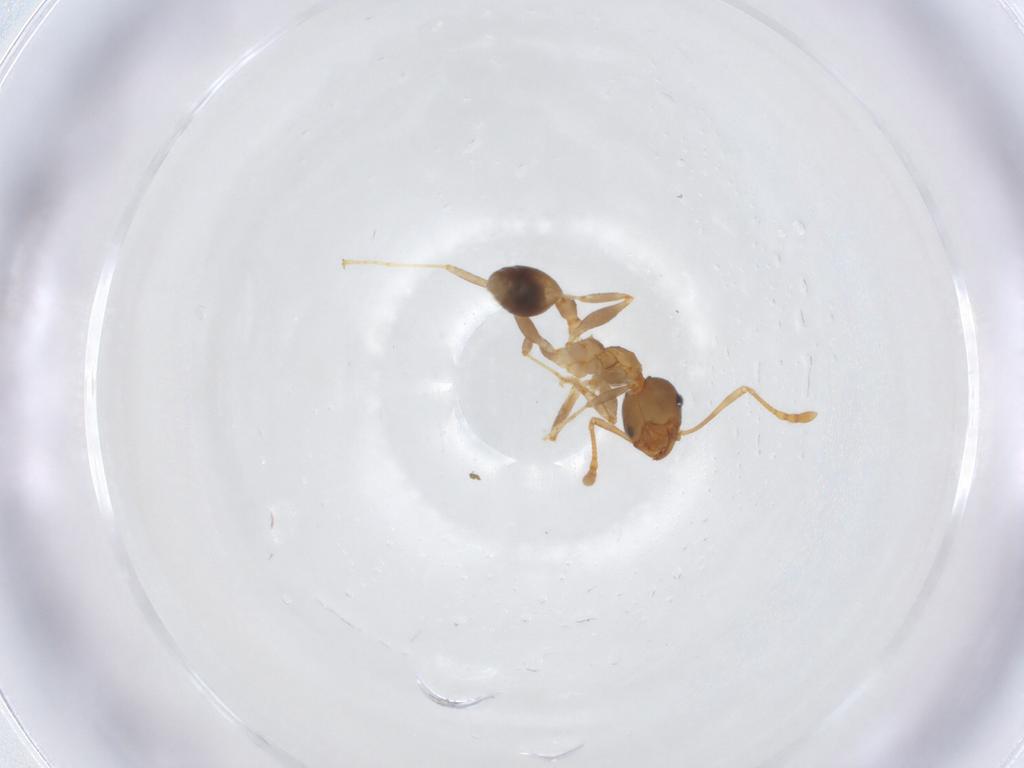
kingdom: Animalia
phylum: Arthropoda
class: Insecta
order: Hymenoptera
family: Formicidae
